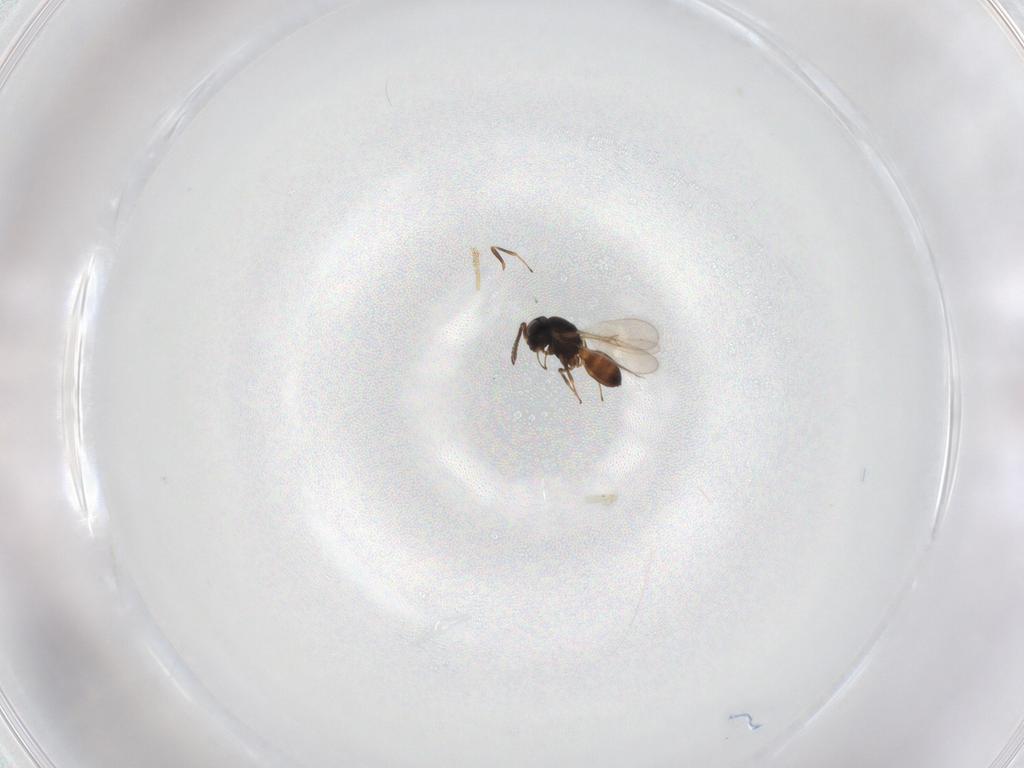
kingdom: Animalia
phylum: Arthropoda
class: Insecta
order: Hymenoptera
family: Scelionidae
